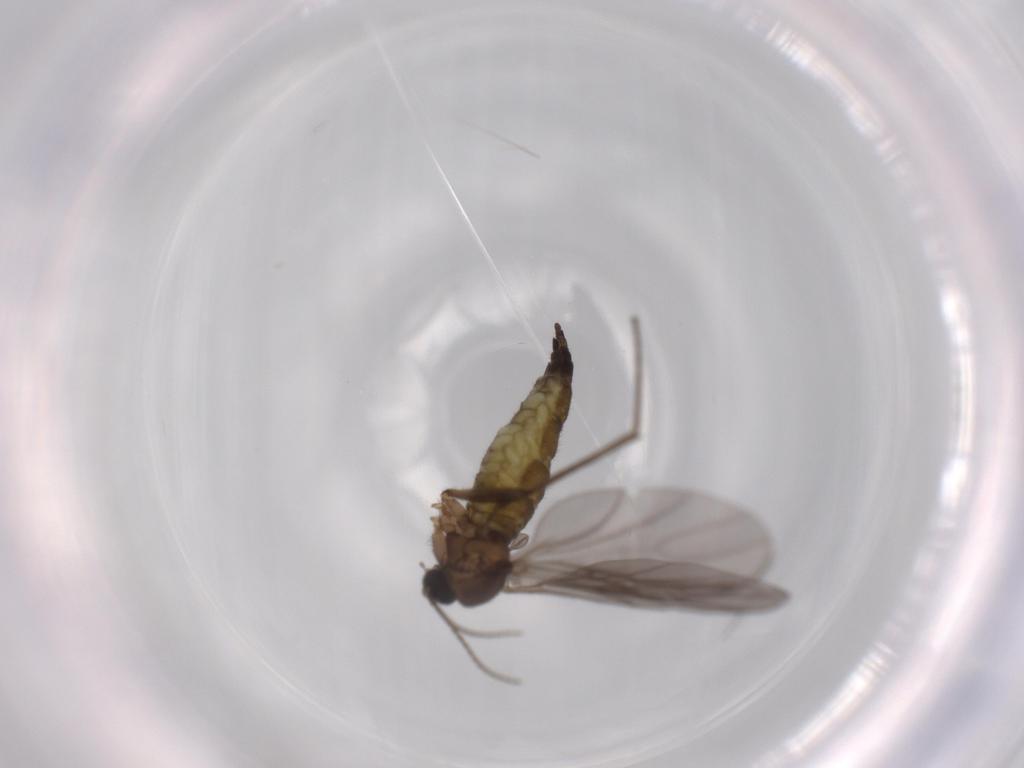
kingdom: Animalia
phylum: Arthropoda
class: Insecta
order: Diptera
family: Sciaridae
